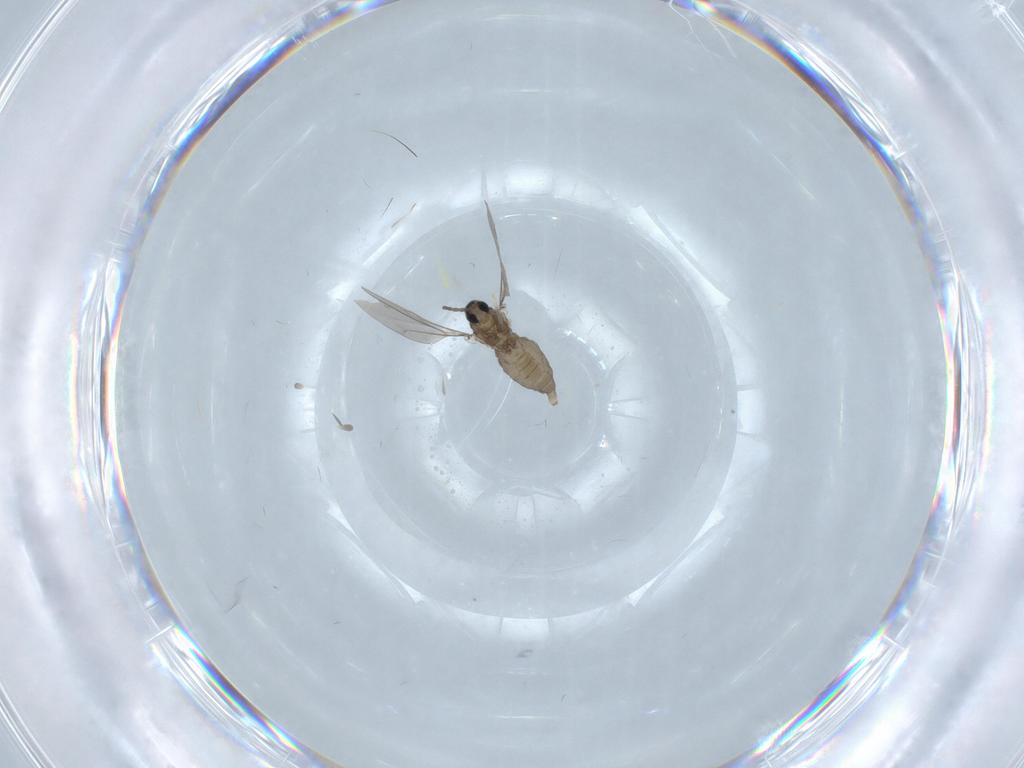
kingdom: Animalia
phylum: Arthropoda
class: Insecta
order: Diptera
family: Cecidomyiidae
